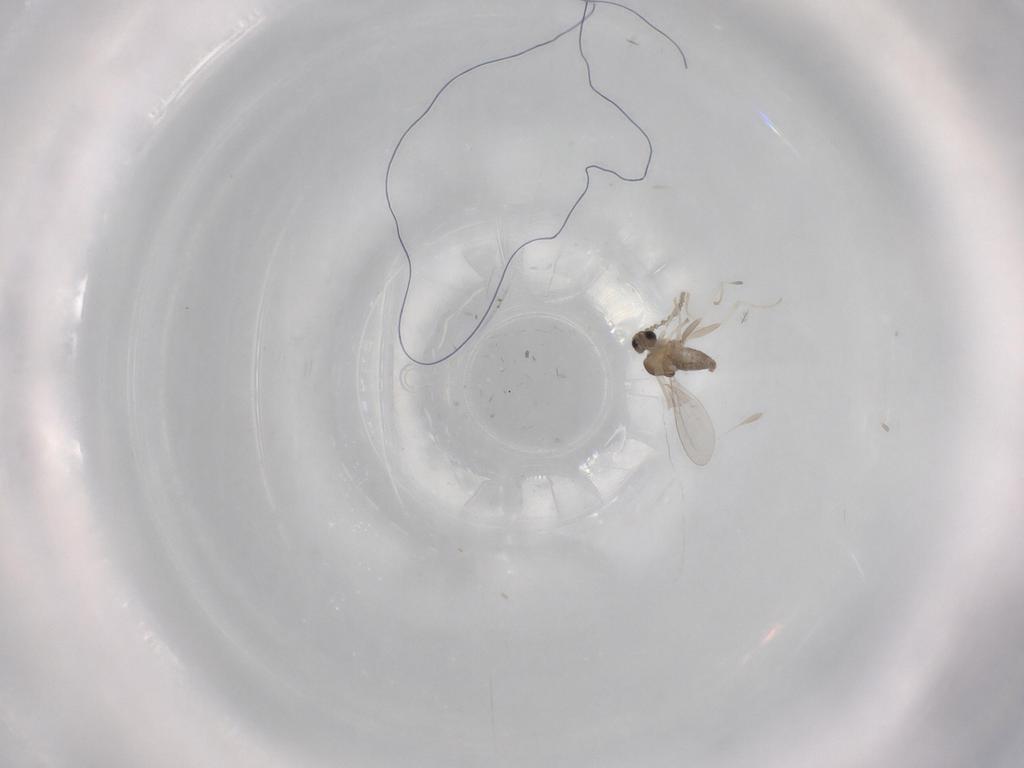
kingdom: Animalia
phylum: Arthropoda
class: Insecta
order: Diptera
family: Cecidomyiidae
